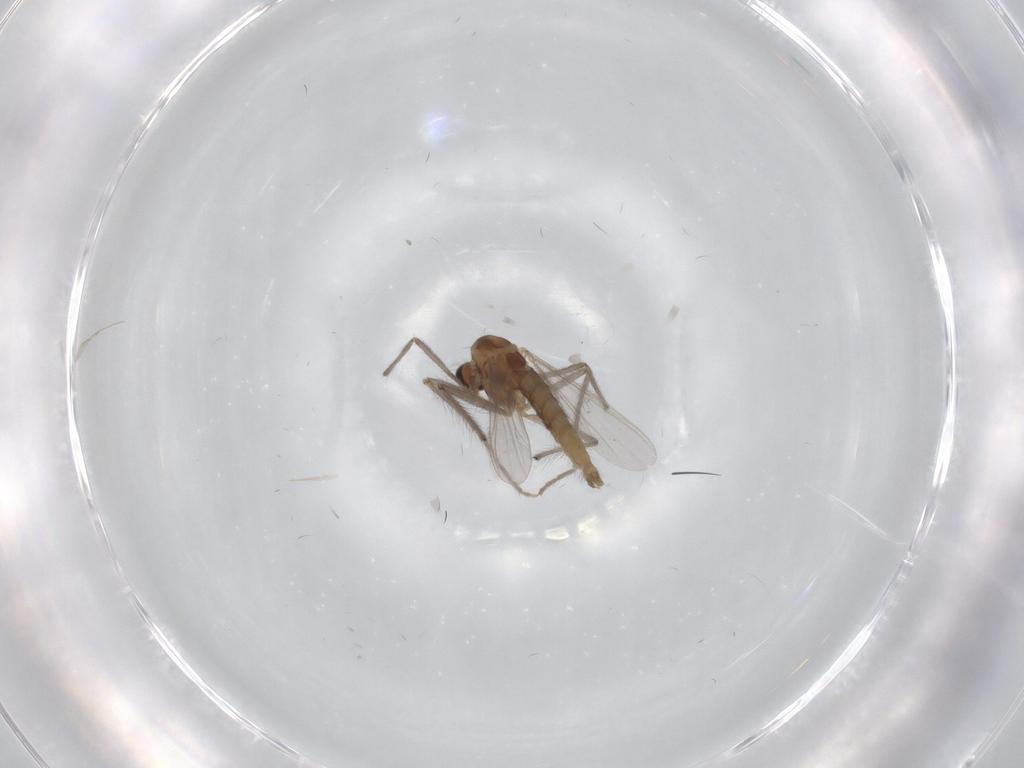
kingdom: Animalia
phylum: Arthropoda
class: Insecta
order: Diptera
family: Chironomidae
